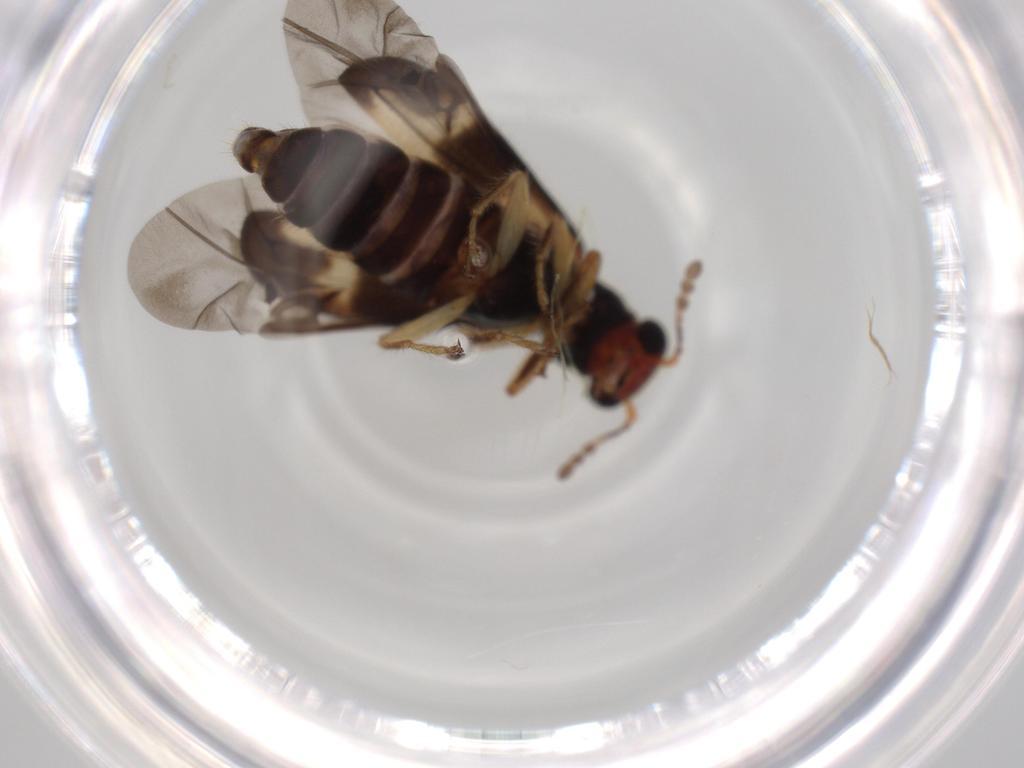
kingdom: Animalia
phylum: Arthropoda
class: Insecta
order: Coleoptera
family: Cleridae
